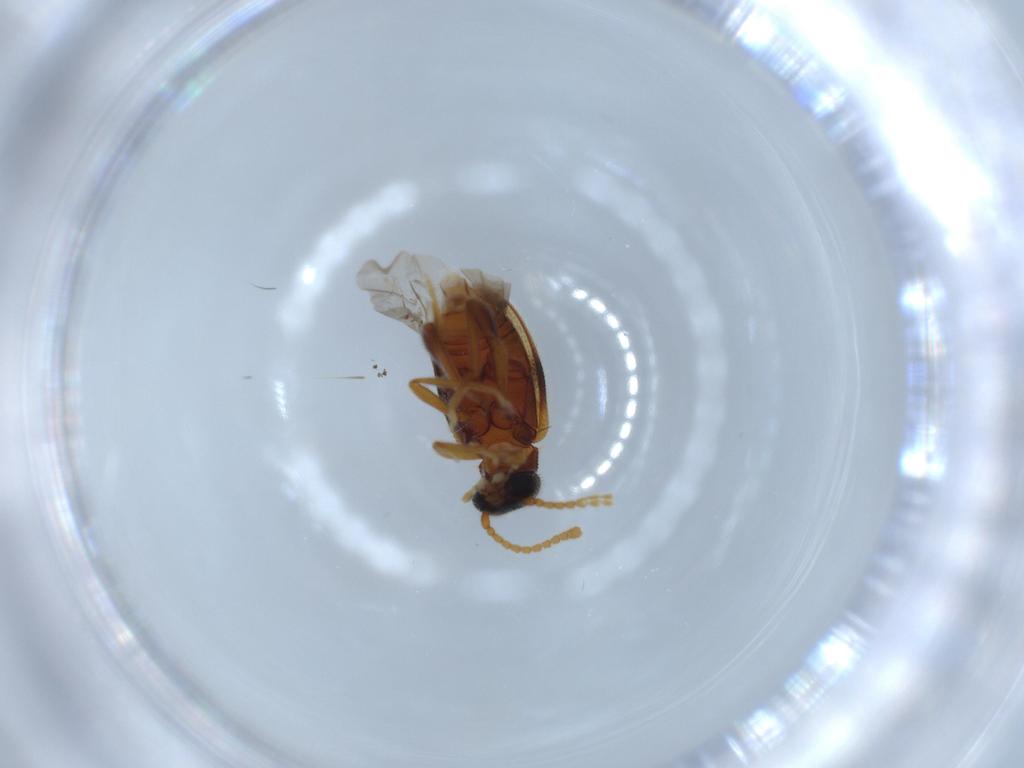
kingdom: Animalia
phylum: Arthropoda
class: Insecta
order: Coleoptera
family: Aderidae
